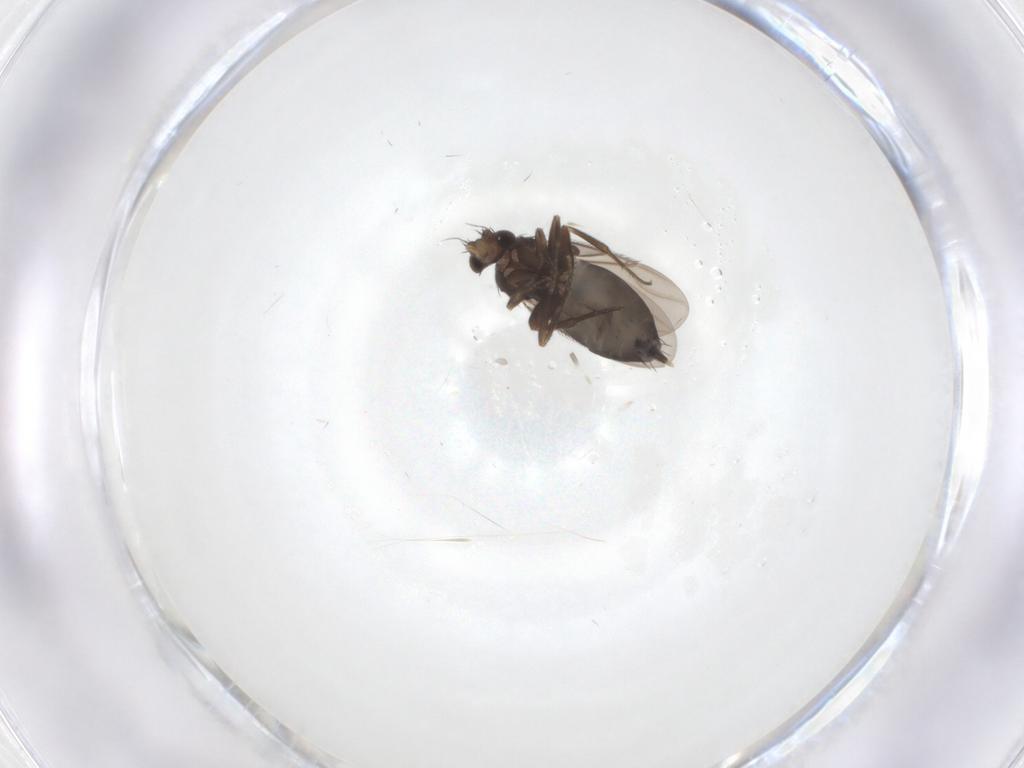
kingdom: Animalia
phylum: Arthropoda
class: Insecta
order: Diptera
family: Phoridae
